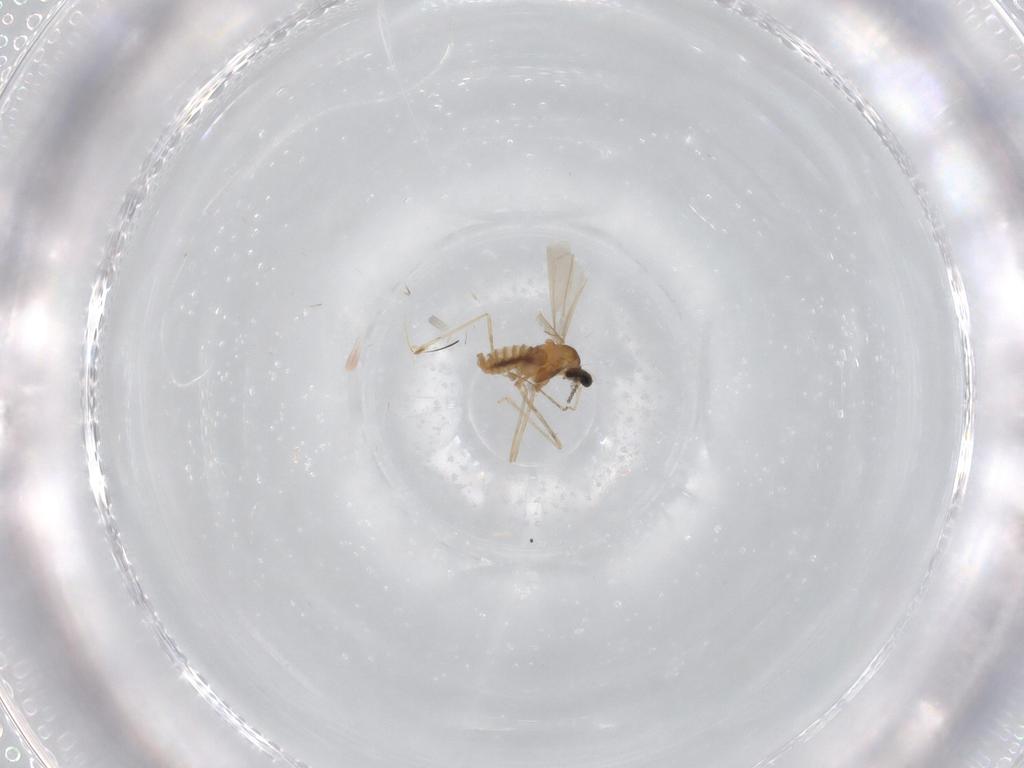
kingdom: Animalia
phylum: Arthropoda
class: Insecta
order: Diptera
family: Cecidomyiidae
